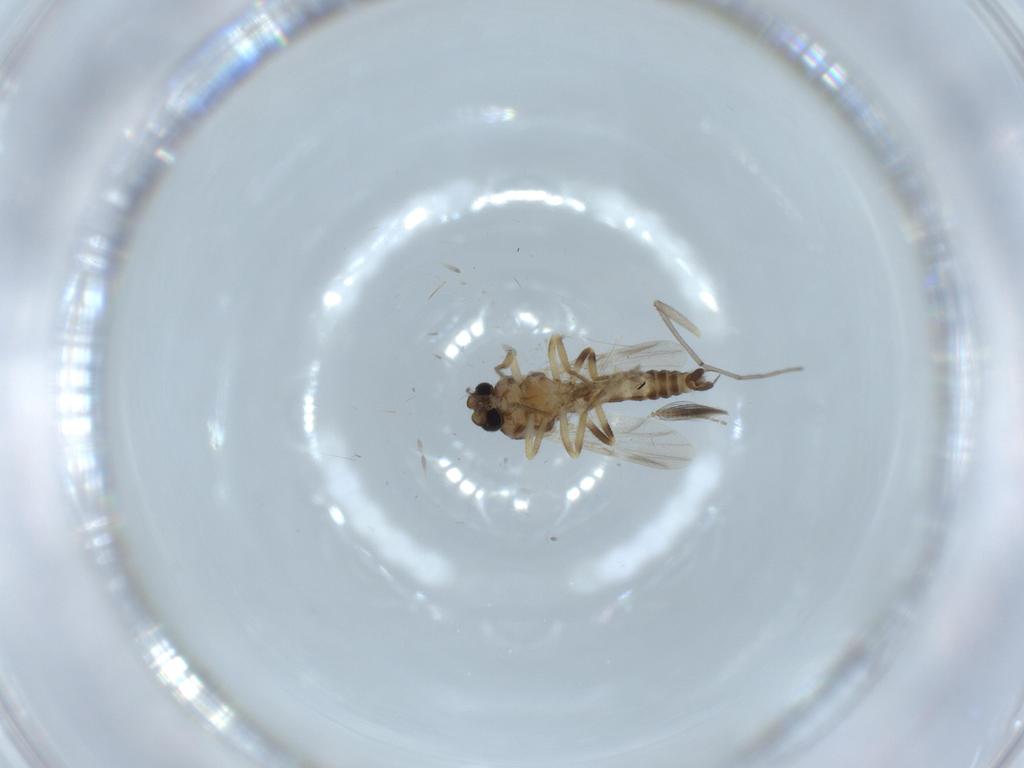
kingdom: Animalia
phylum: Arthropoda
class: Insecta
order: Diptera
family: Ceratopogonidae
